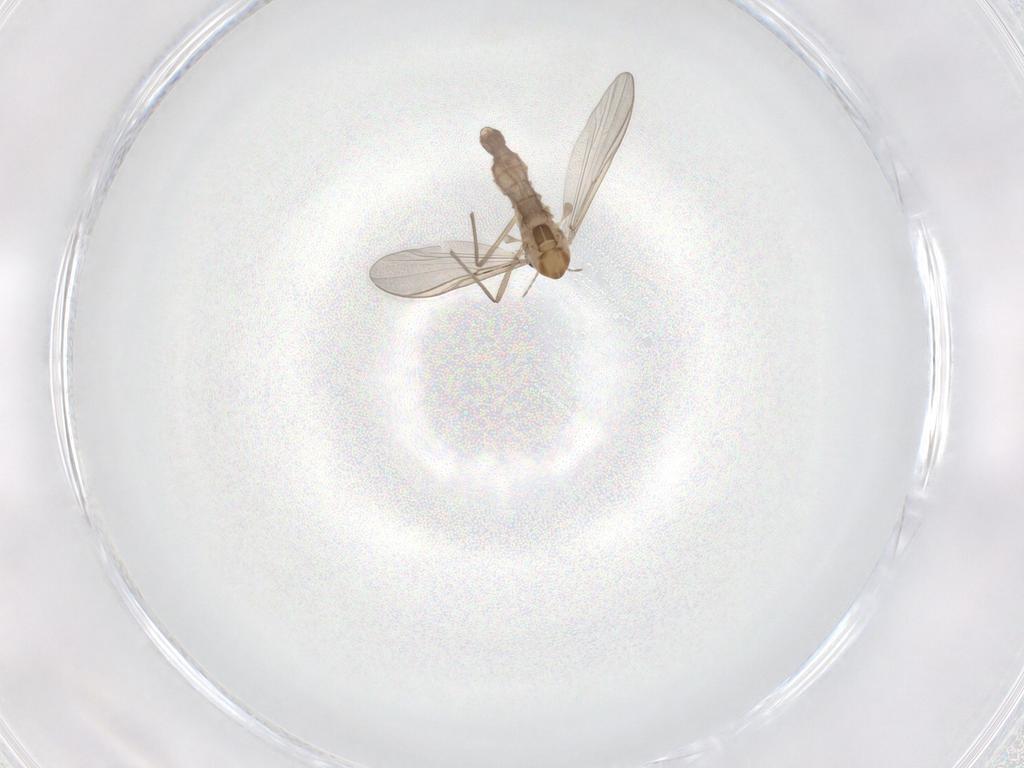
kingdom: Animalia
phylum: Arthropoda
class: Insecta
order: Diptera
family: Chironomidae
